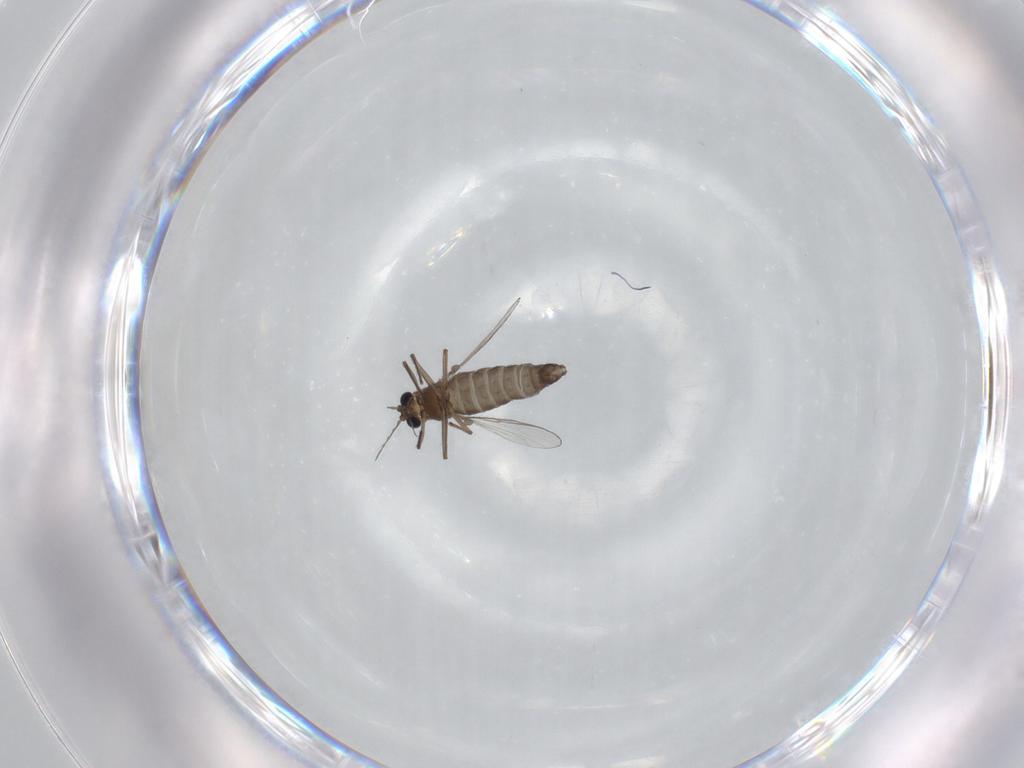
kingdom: Animalia
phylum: Arthropoda
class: Insecta
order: Diptera
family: Chironomidae
